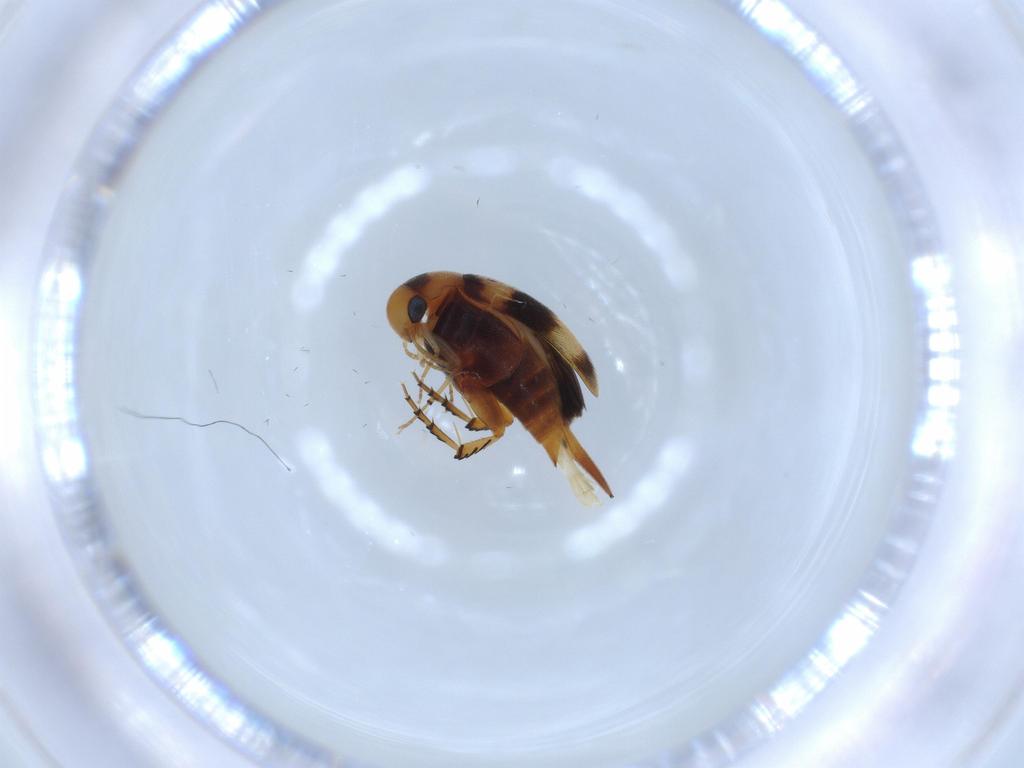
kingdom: Animalia
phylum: Arthropoda
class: Insecta
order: Coleoptera
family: Mordellidae
